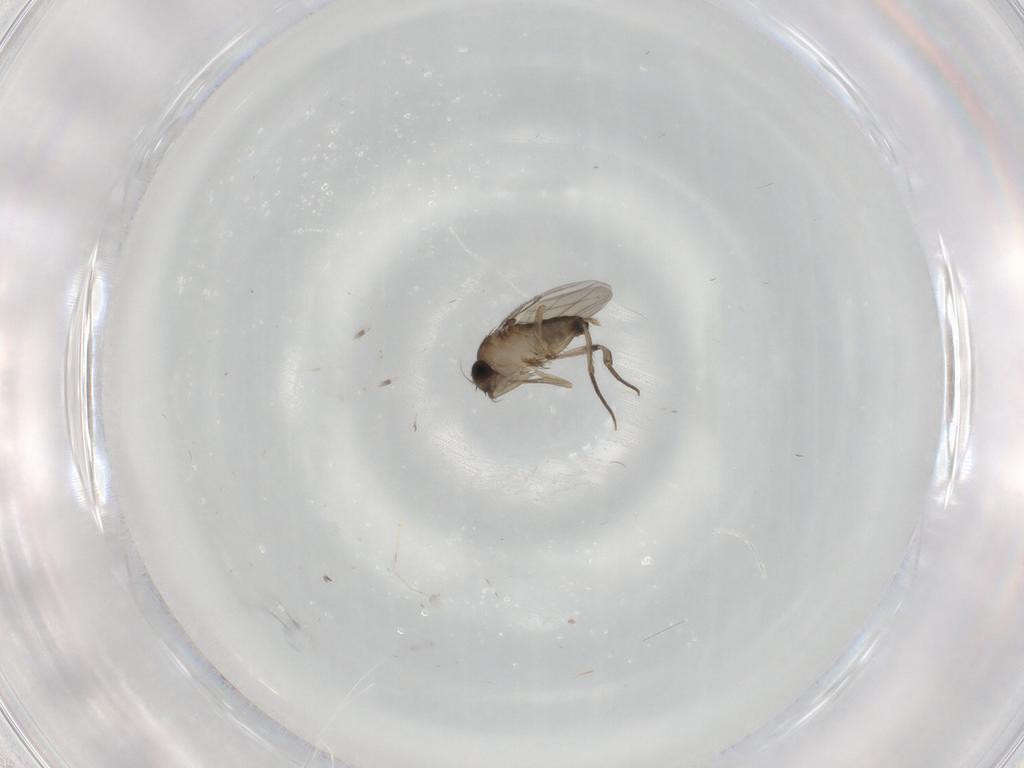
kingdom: Animalia
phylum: Arthropoda
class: Insecta
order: Diptera
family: Phoridae
